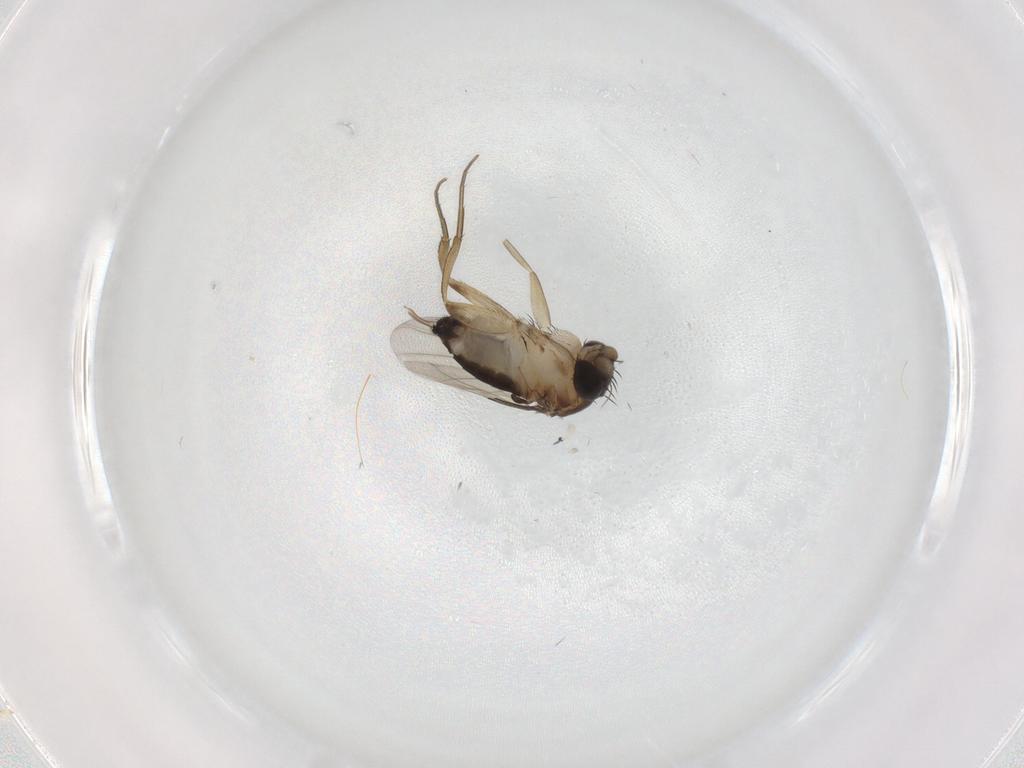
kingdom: Animalia
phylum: Arthropoda
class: Insecta
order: Diptera
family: Phoridae
